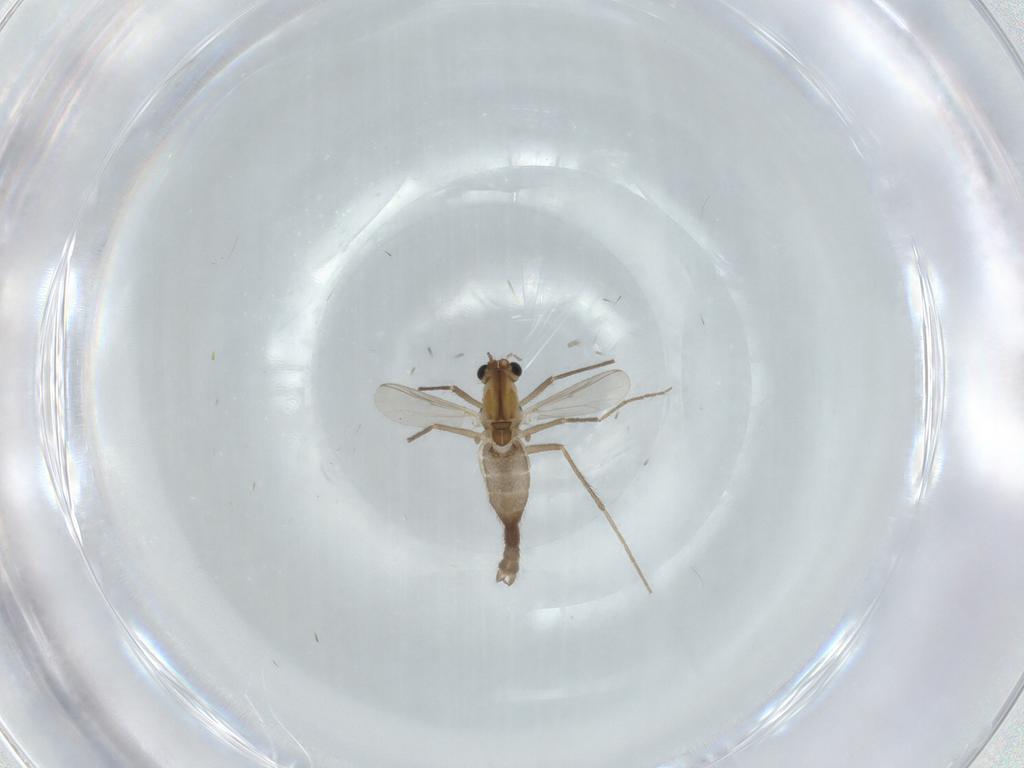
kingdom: Animalia
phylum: Arthropoda
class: Insecta
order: Diptera
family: Chironomidae
